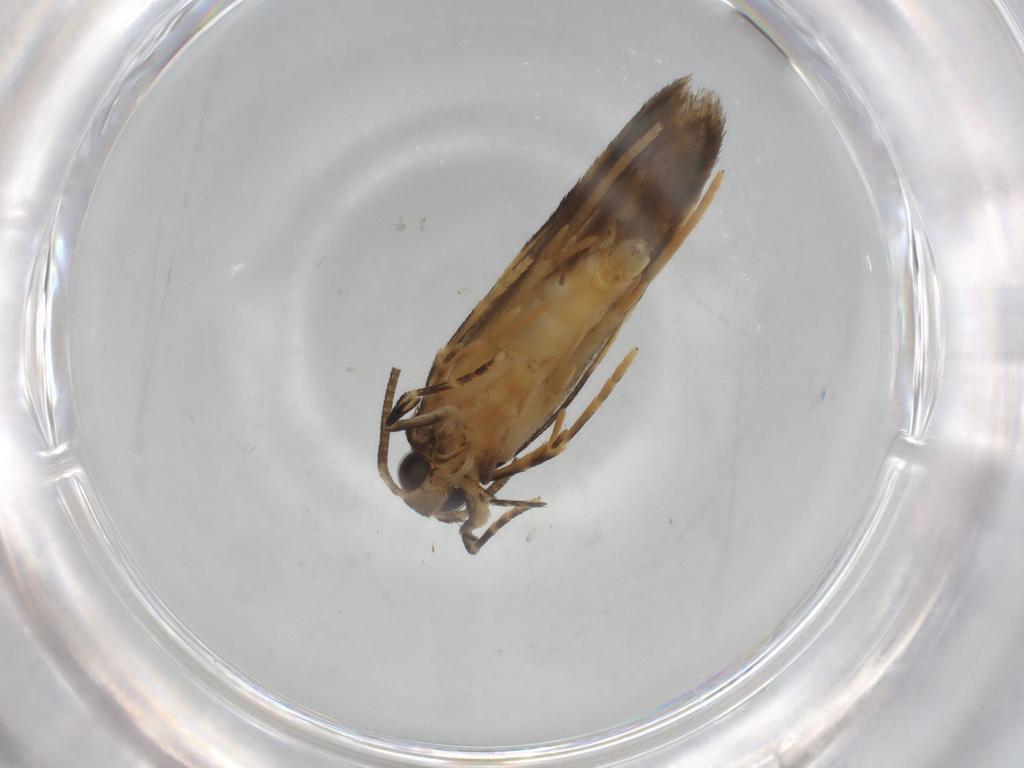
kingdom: Animalia
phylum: Arthropoda
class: Insecta
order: Lepidoptera
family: Autostichidae
